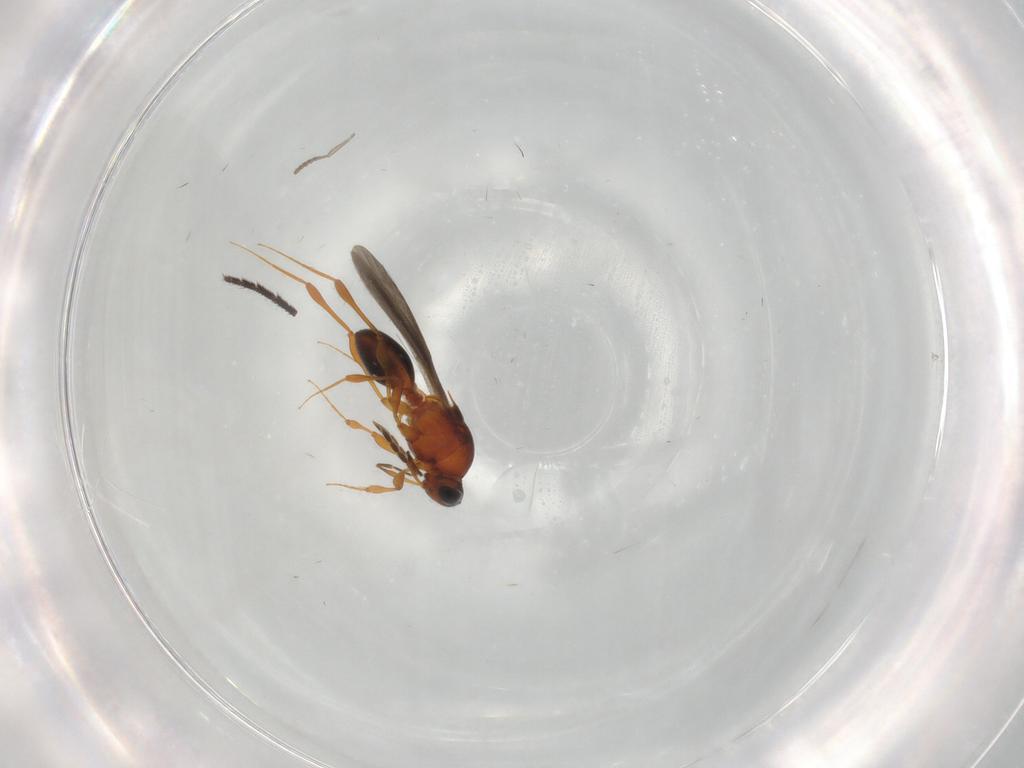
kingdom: Animalia
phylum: Arthropoda
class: Insecta
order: Hymenoptera
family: Platygastridae
